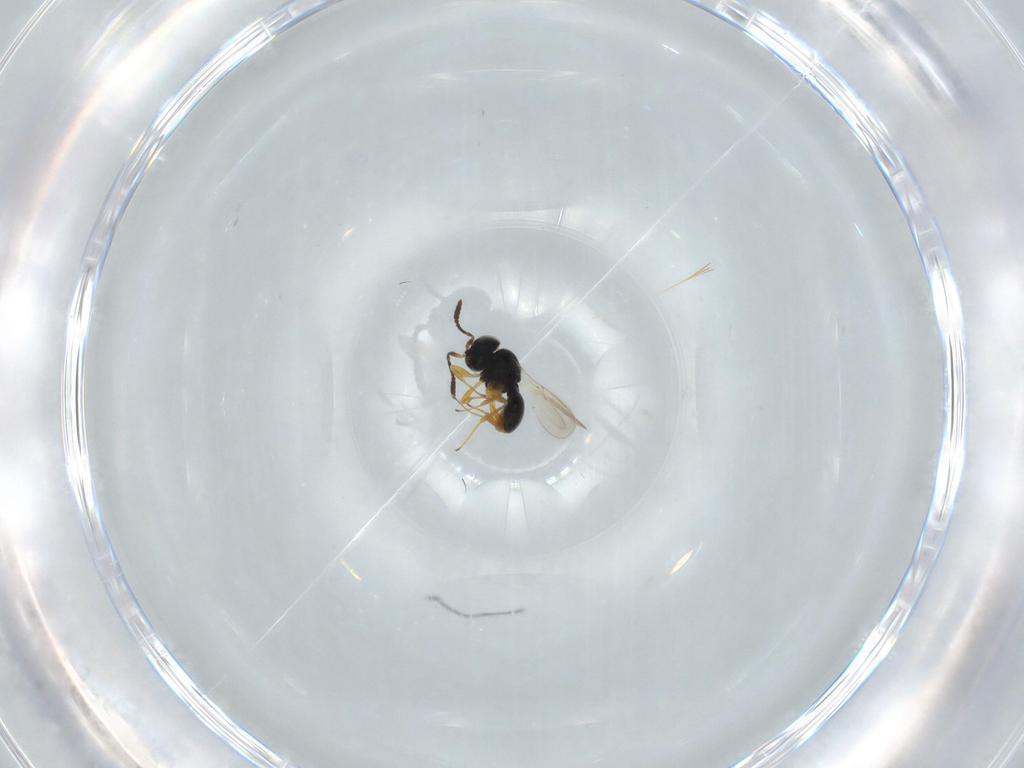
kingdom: Animalia
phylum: Arthropoda
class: Insecta
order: Hymenoptera
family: Scelionidae
